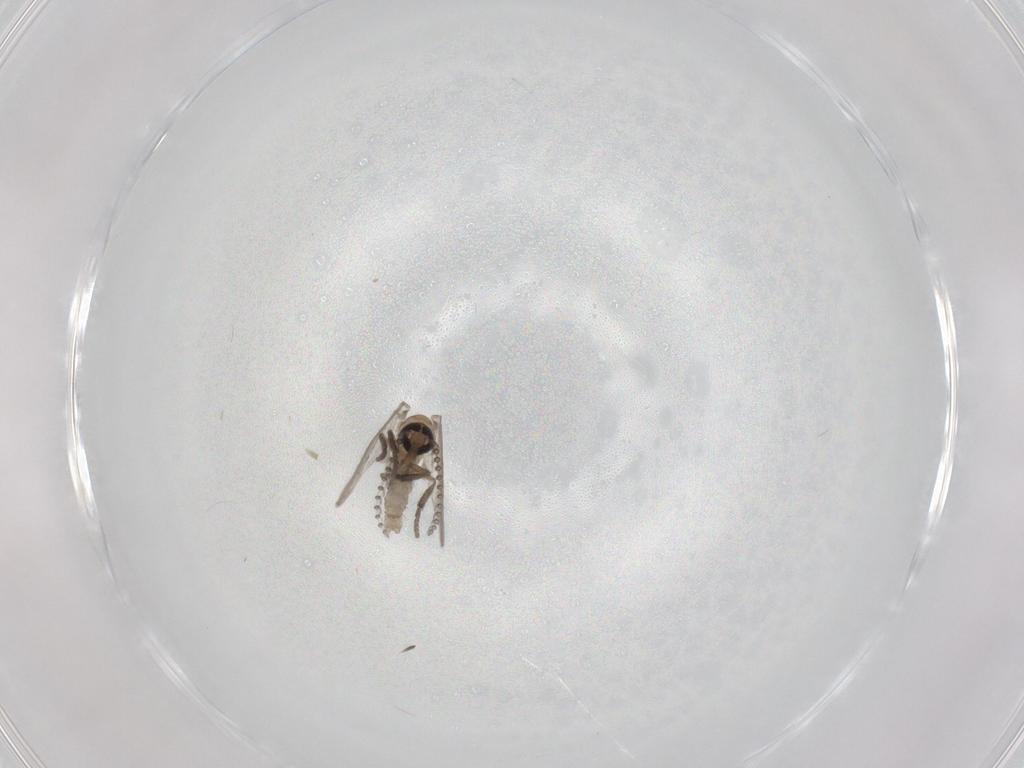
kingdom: Animalia
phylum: Arthropoda
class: Insecta
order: Diptera
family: Psychodidae
